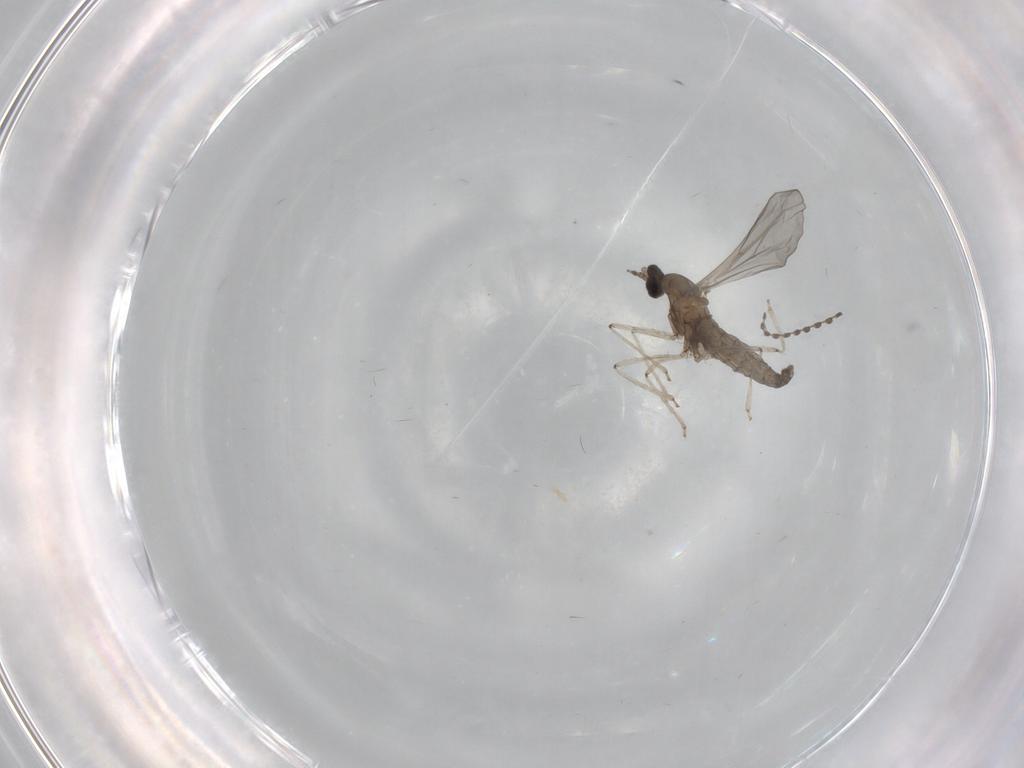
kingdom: Animalia
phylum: Arthropoda
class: Insecta
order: Diptera
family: Cecidomyiidae
